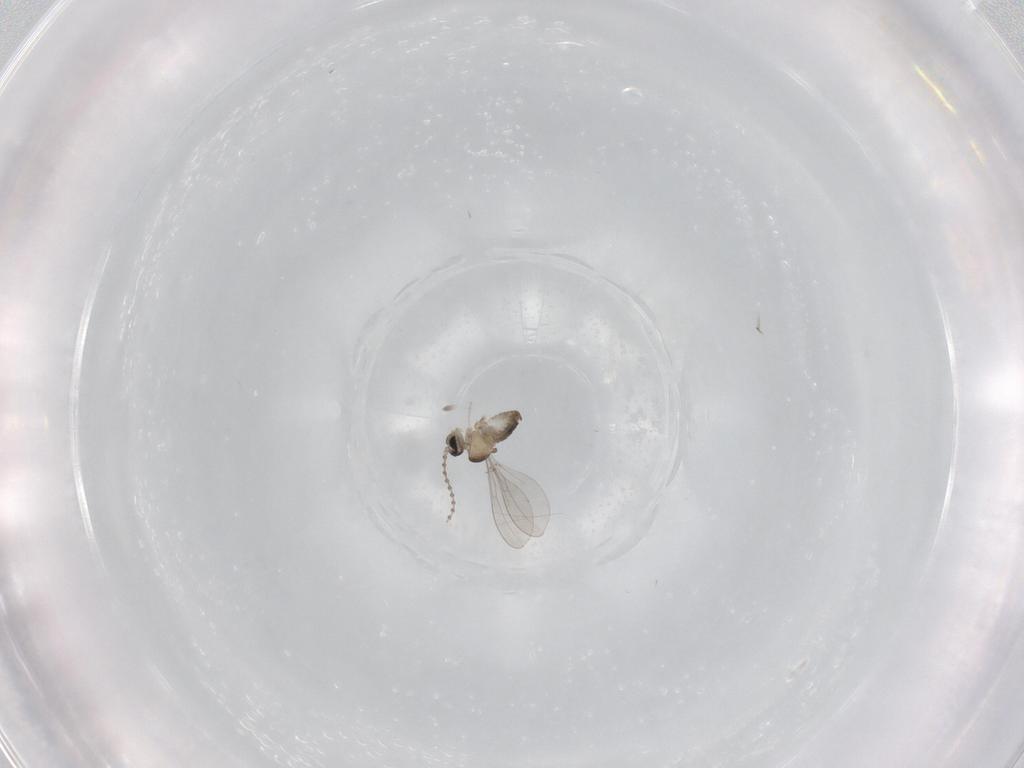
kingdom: Animalia
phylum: Arthropoda
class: Insecta
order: Diptera
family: Cecidomyiidae
